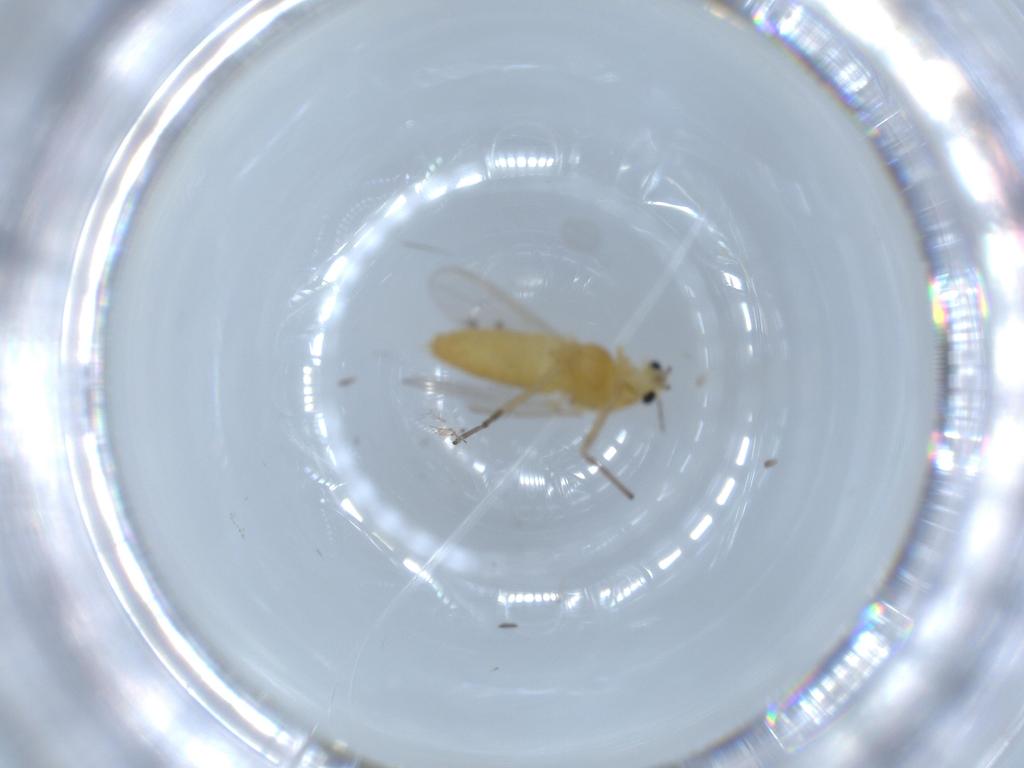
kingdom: Animalia
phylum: Arthropoda
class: Insecta
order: Diptera
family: Chironomidae
